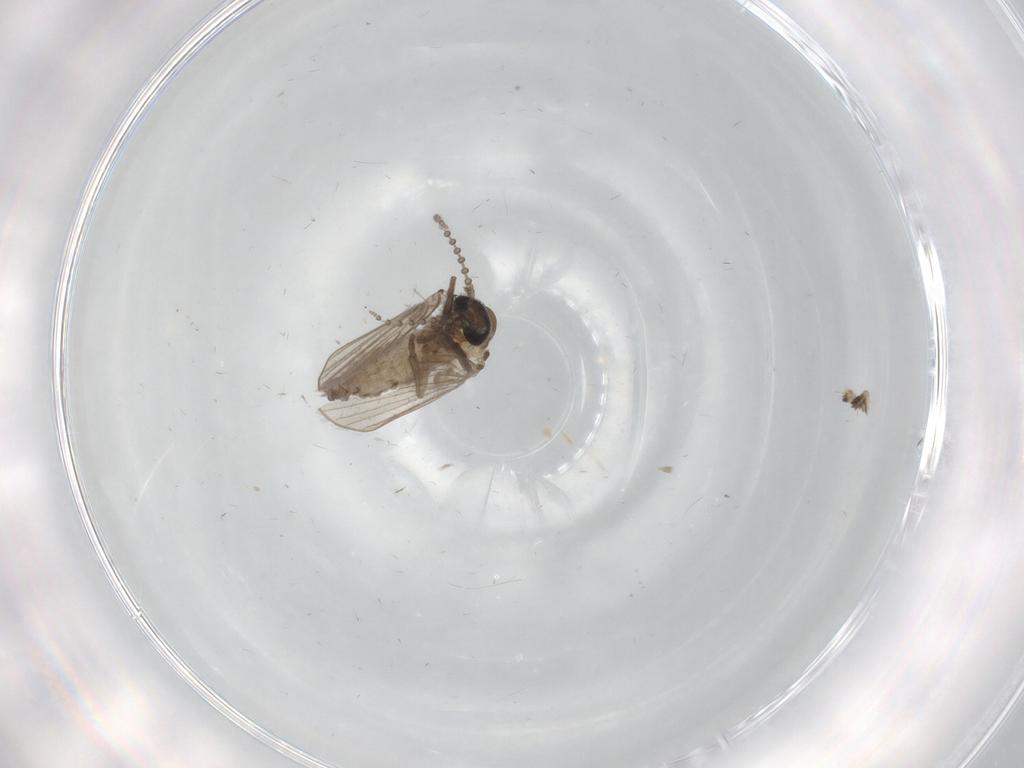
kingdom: Animalia
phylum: Arthropoda
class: Insecta
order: Diptera
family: Psychodidae
